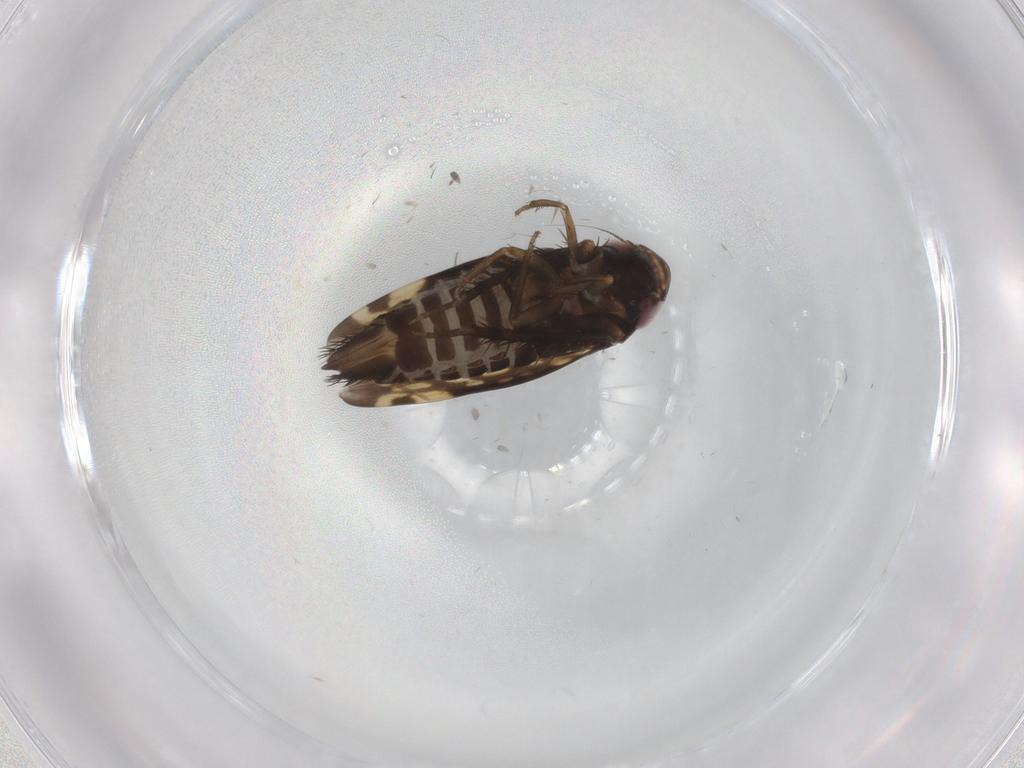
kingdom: Animalia
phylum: Arthropoda
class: Insecta
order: Hemiptera
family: Cicadellidae
